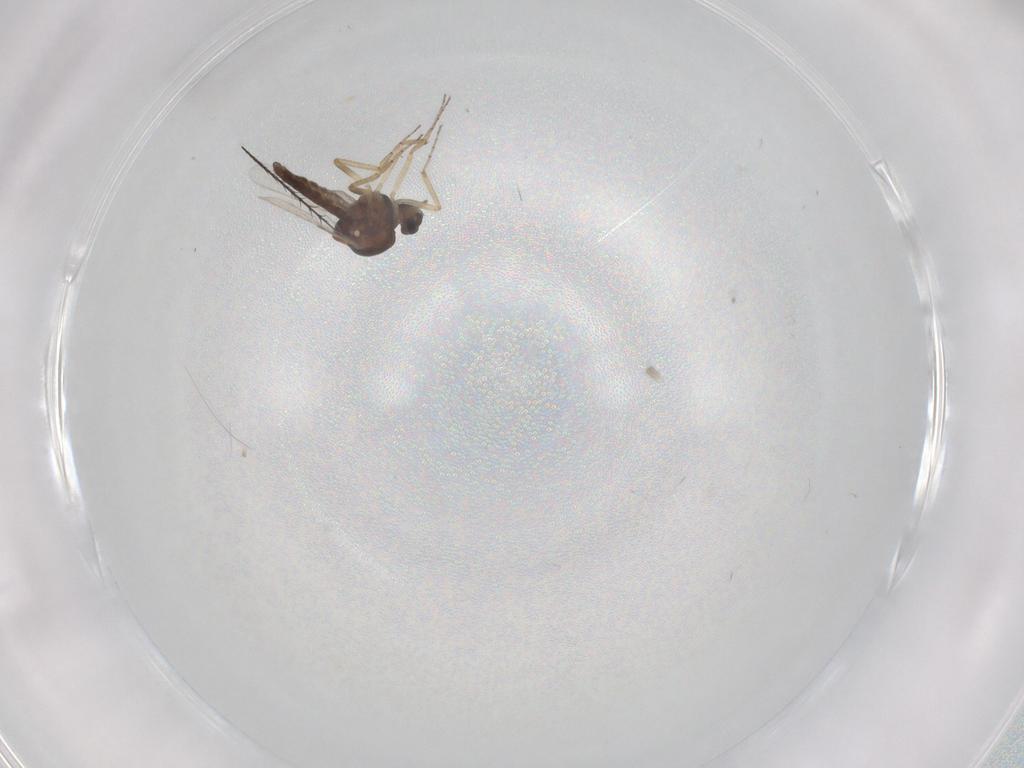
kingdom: Animalia
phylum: Arthropoda
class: Insecta
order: Diptera
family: Ceratopogonidae
